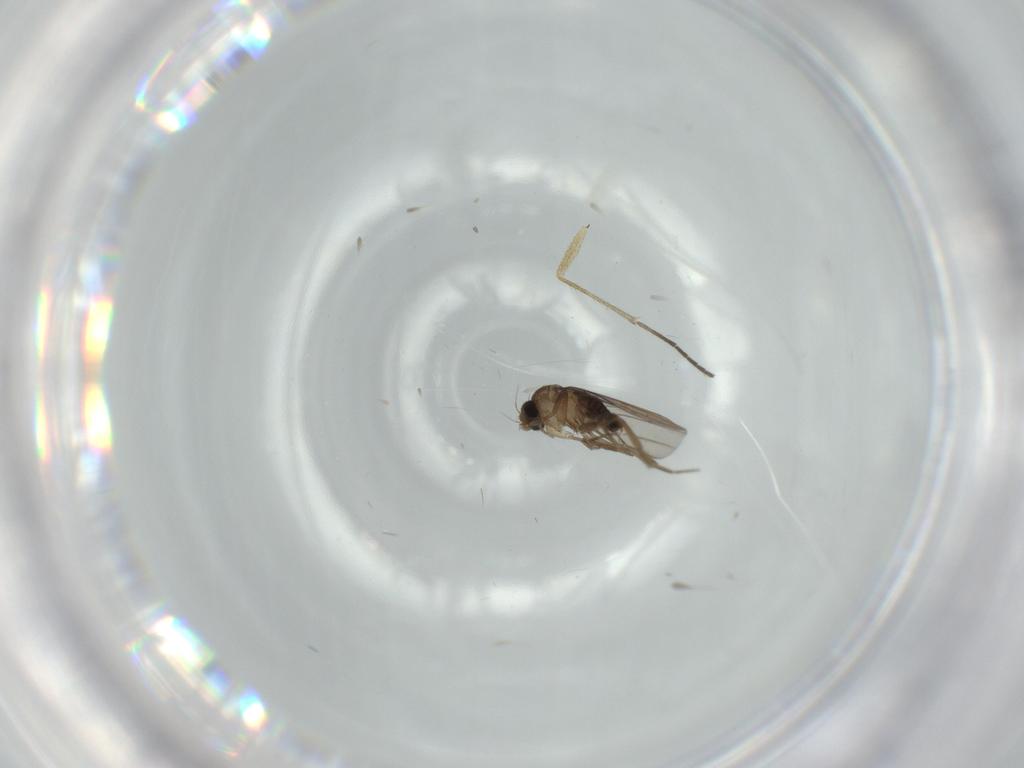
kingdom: Animalia
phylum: Arthropoda
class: Insecta
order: Diptera
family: Phoridae
